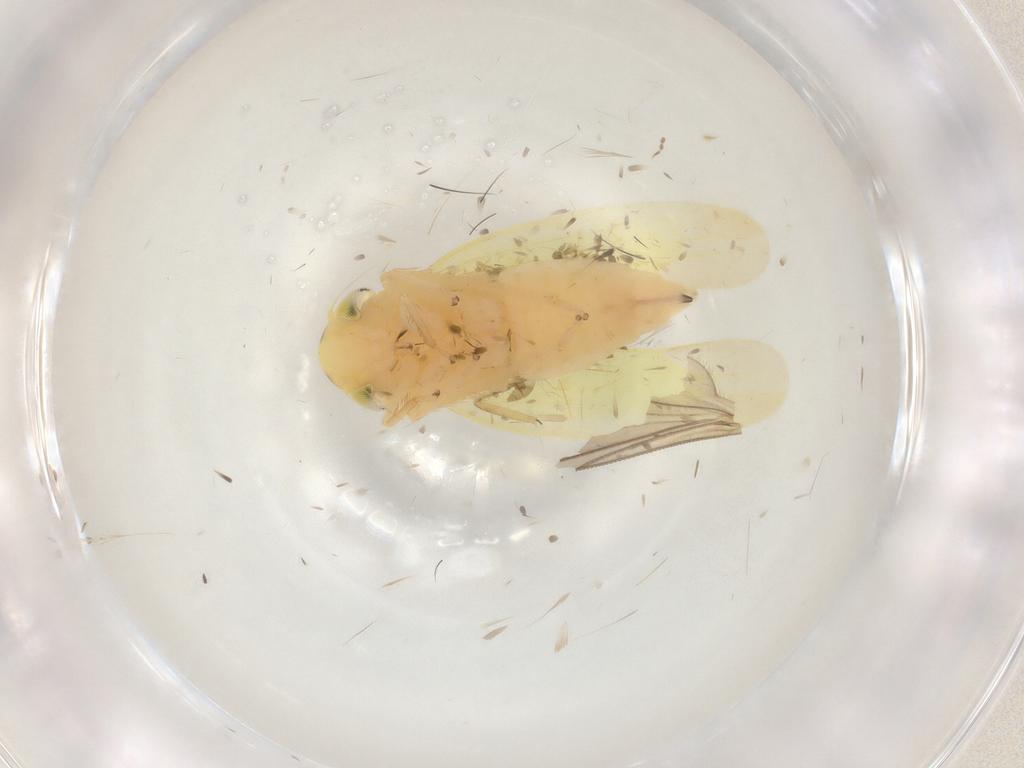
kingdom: Animalia
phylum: Arthropoda
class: Insecta
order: Hemiptera
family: Cicadellidae
